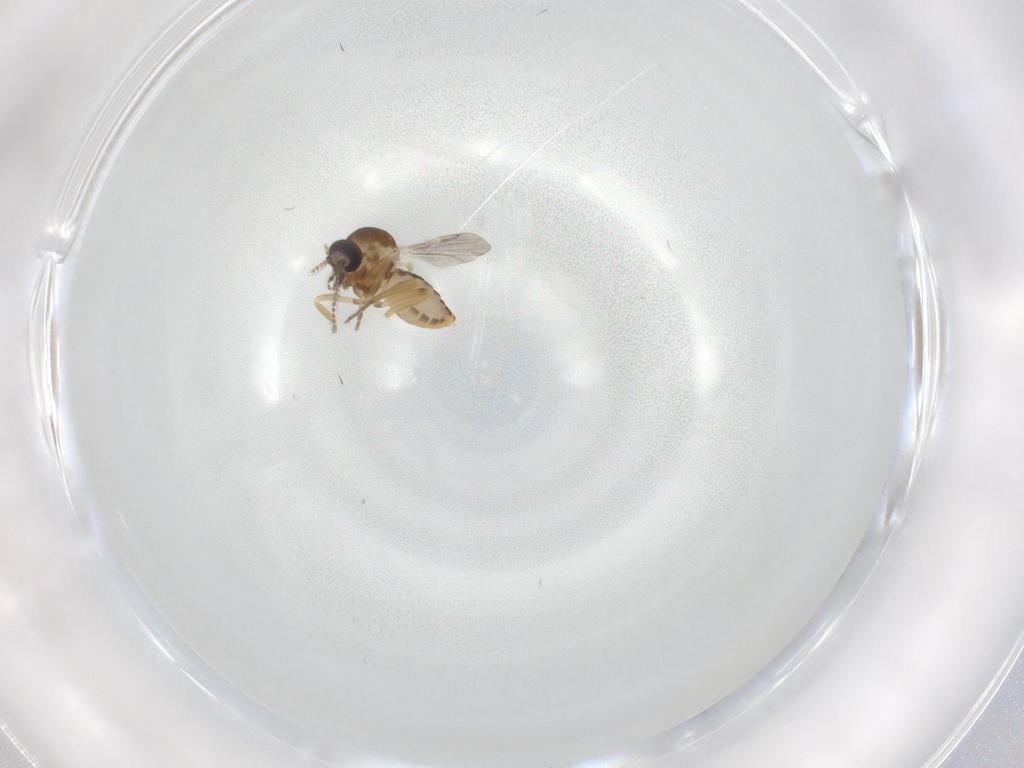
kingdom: Animalia
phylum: Arthropoda
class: Insecta
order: Diptera
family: Ceratopogonidae
